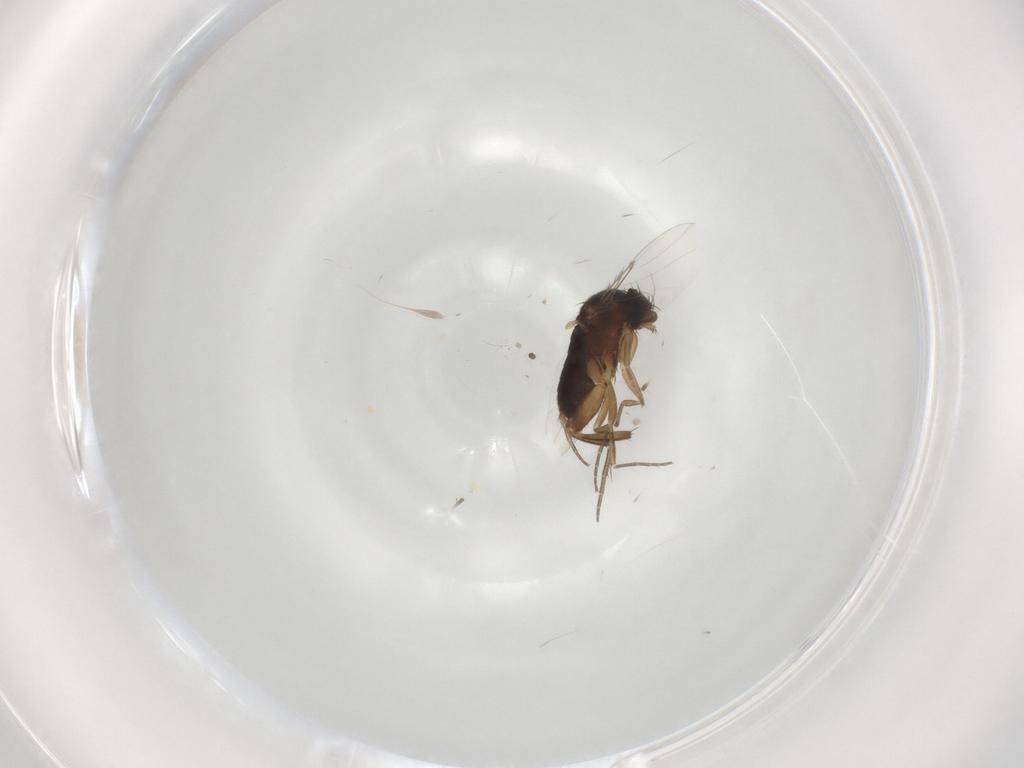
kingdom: Animalia
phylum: Arthropoda
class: Insecta
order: Diptera
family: Phoridae
